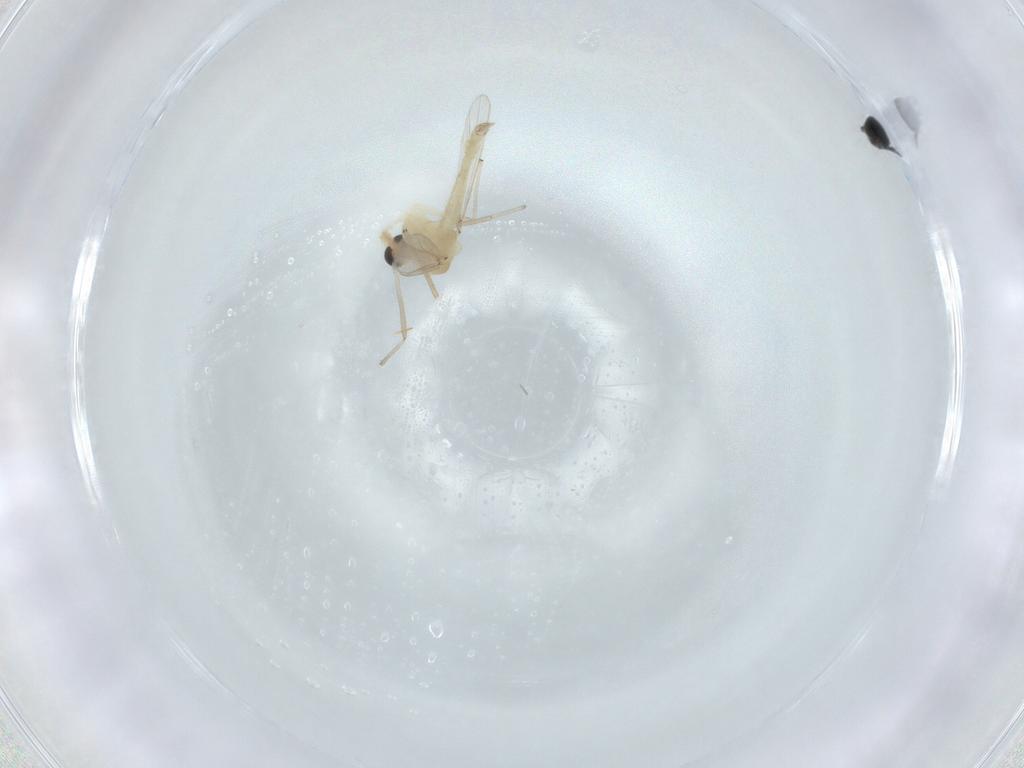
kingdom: Animalia
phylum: Arthropoda
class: Insecta
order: Diptera
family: Chironomidae
